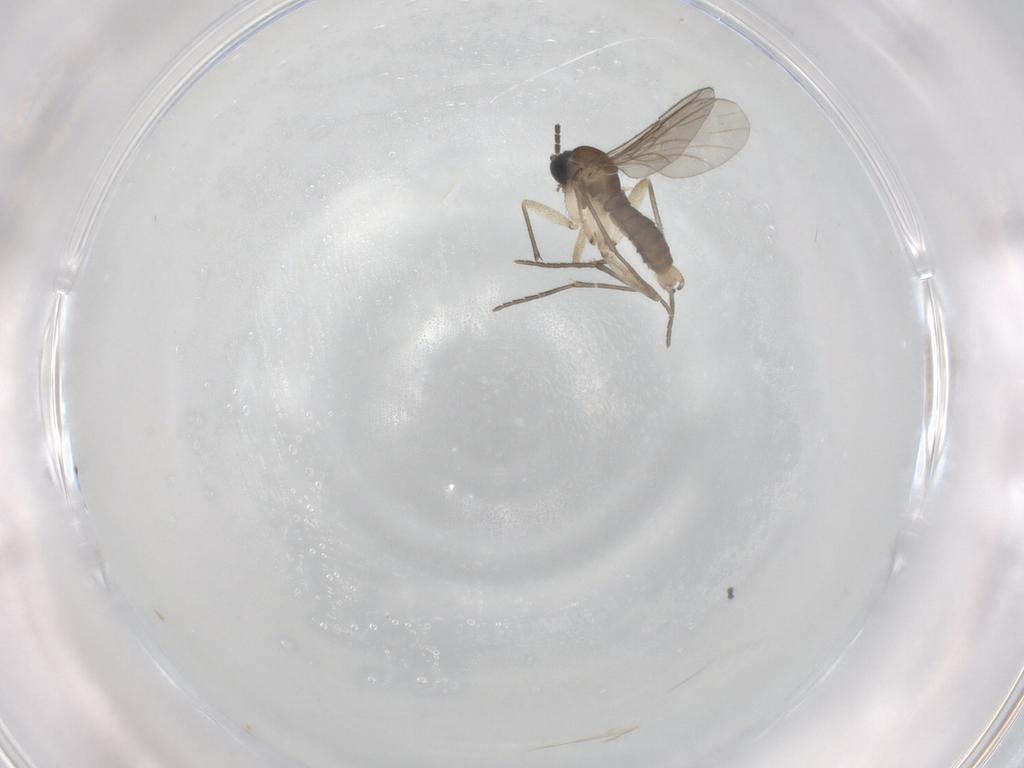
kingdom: Animalia
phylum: Arthropoda
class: Insecta
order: Diptera
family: Sciaridae
